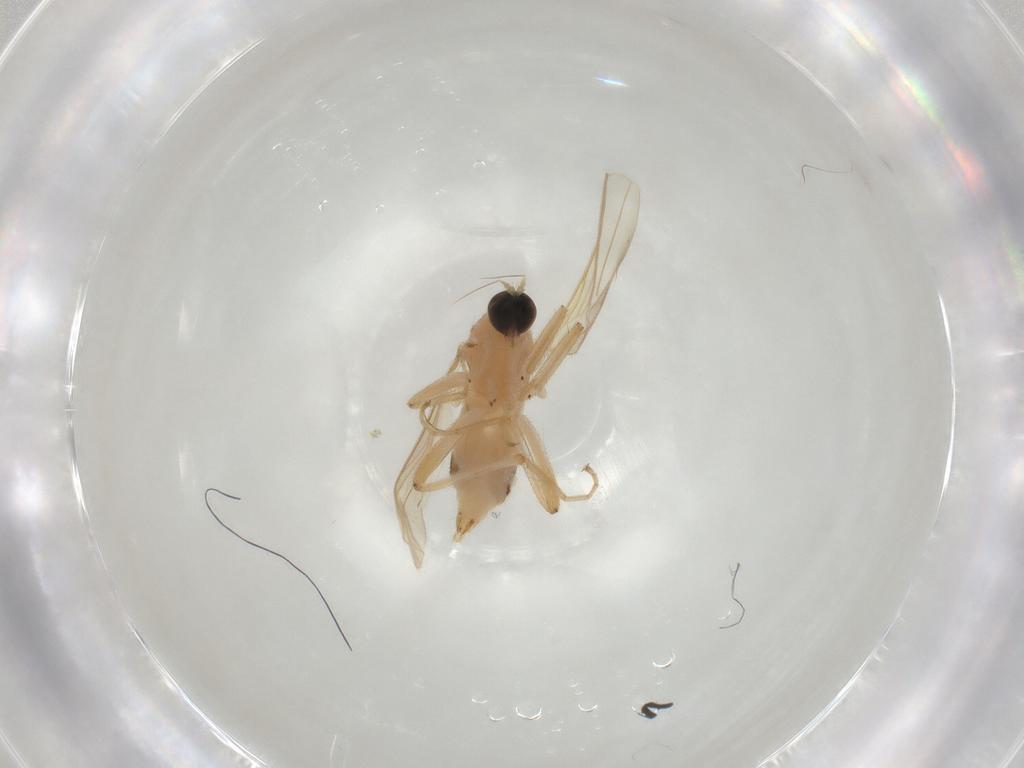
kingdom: Animalia
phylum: Arthropoda
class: Insecta
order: Diptera
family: Hybotidae
